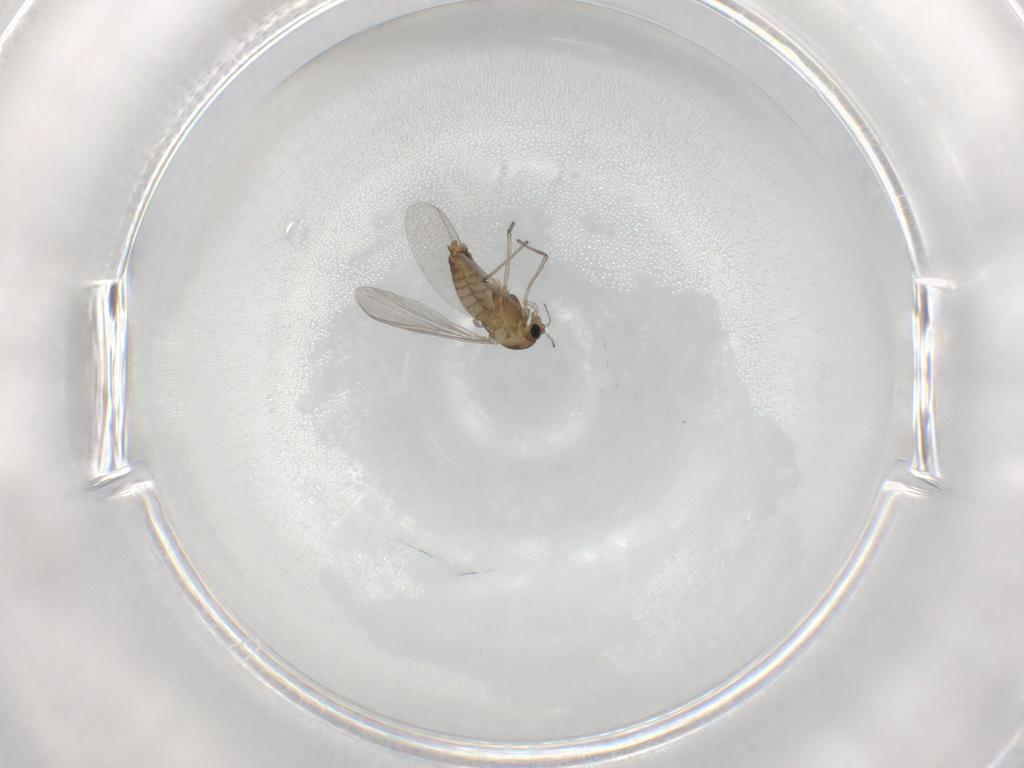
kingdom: Animalia
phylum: Arthropoda
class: Insecta
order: Diptera
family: Chironomidae
